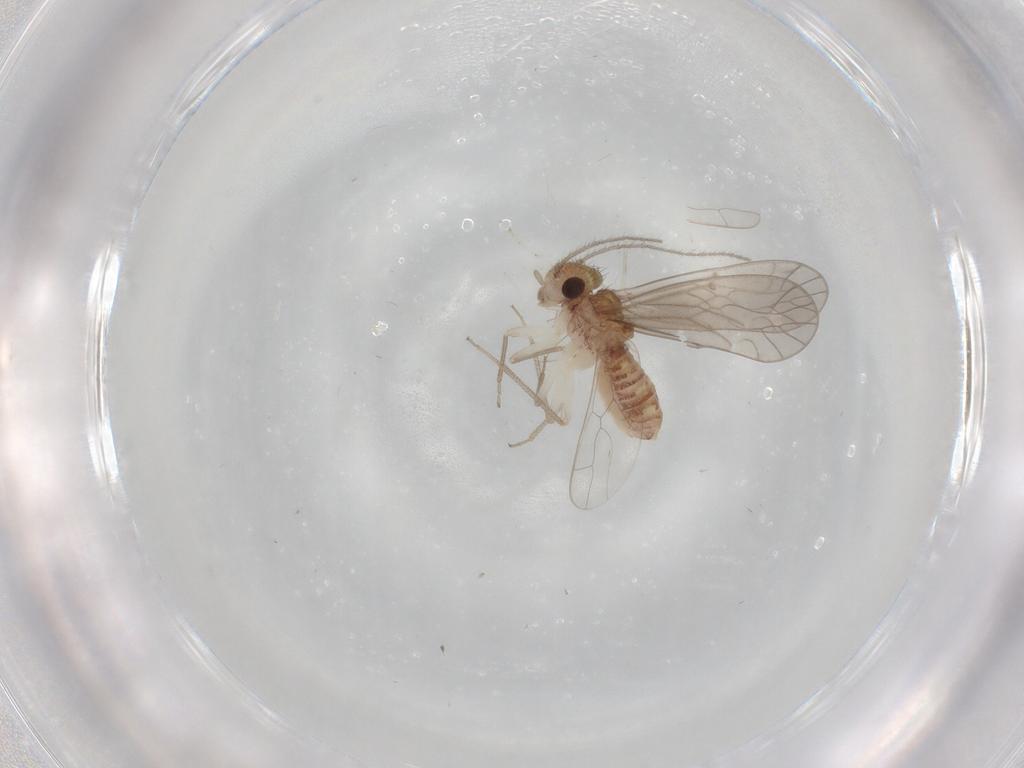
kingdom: Animalia
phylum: Arthropoda
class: Insecta
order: Psocodea
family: Caeciliusidae
